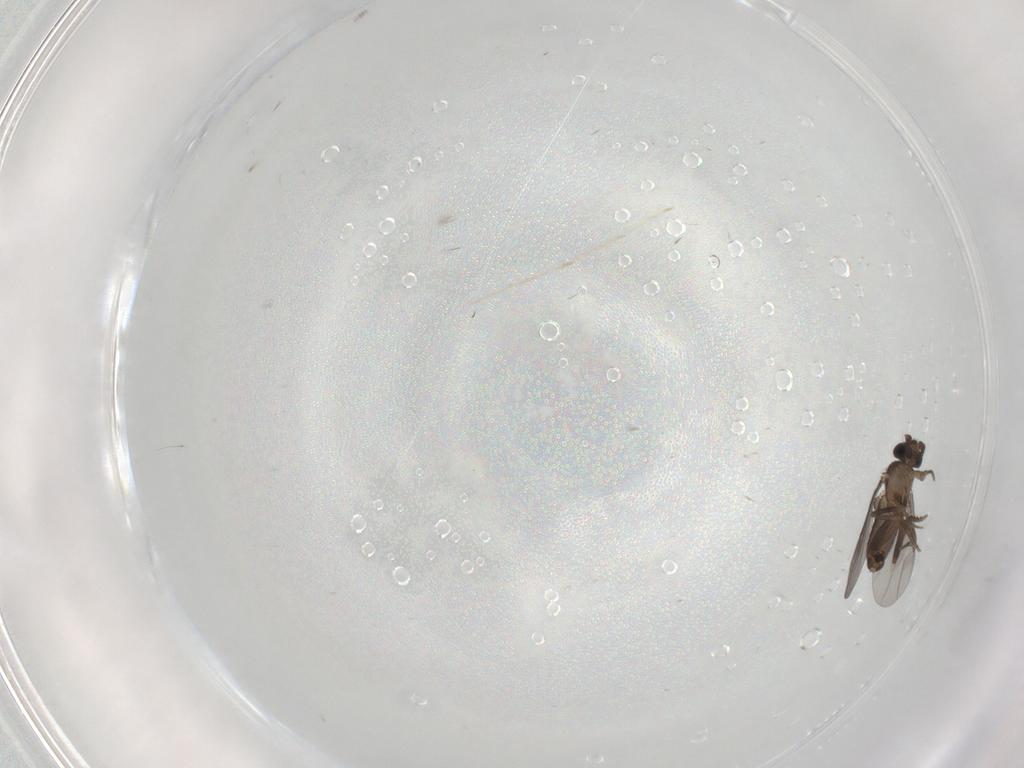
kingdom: Animalia
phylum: Arthropoda
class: Insecta
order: Diptera
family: Cecidomyiidae
